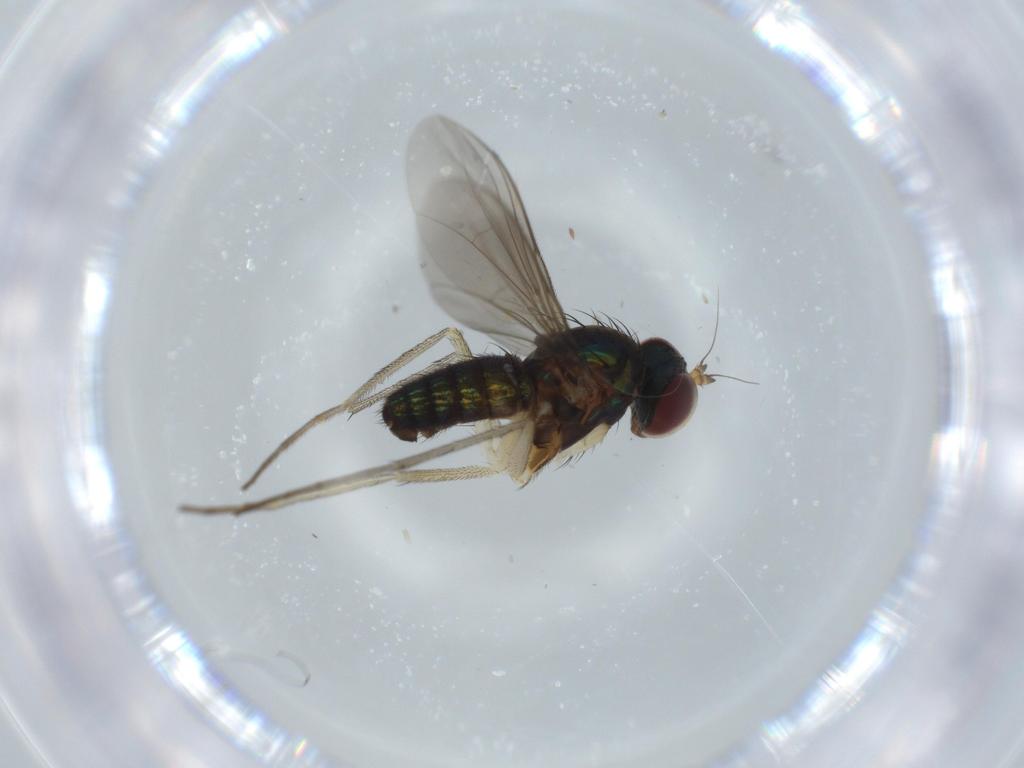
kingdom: Animalia
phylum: Arthropoda
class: Insecta
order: Diptera
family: Dolichopodidae
